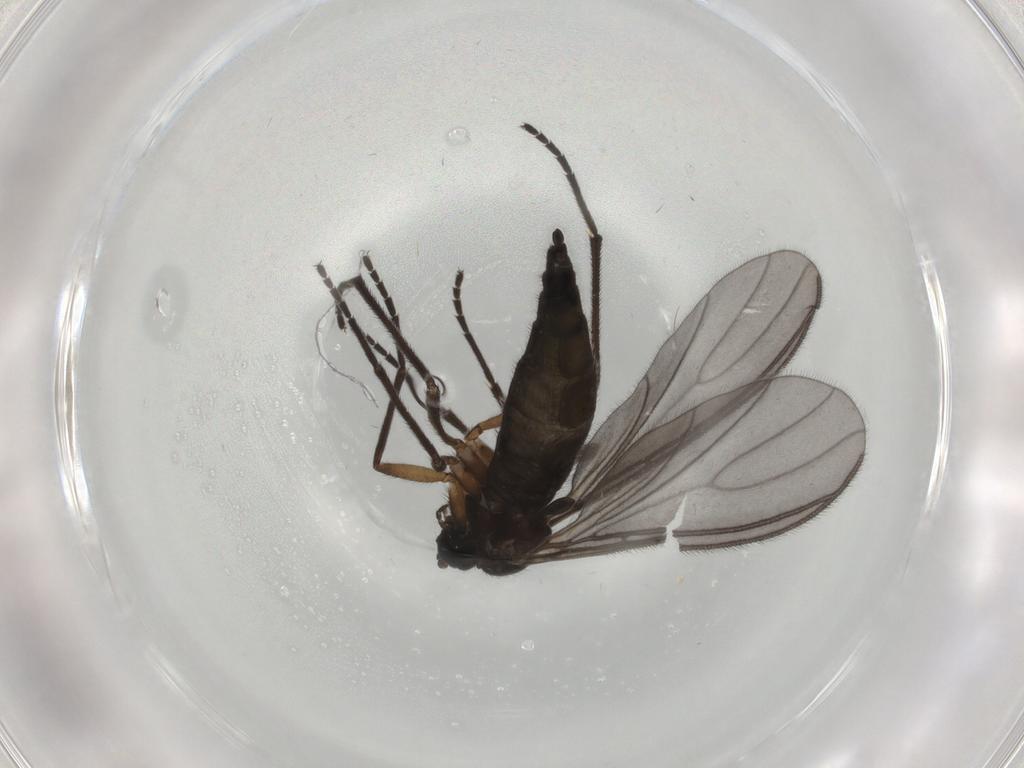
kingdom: Animalia
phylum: Arthropoda
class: Insecta
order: Diptera
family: Sciaridae
